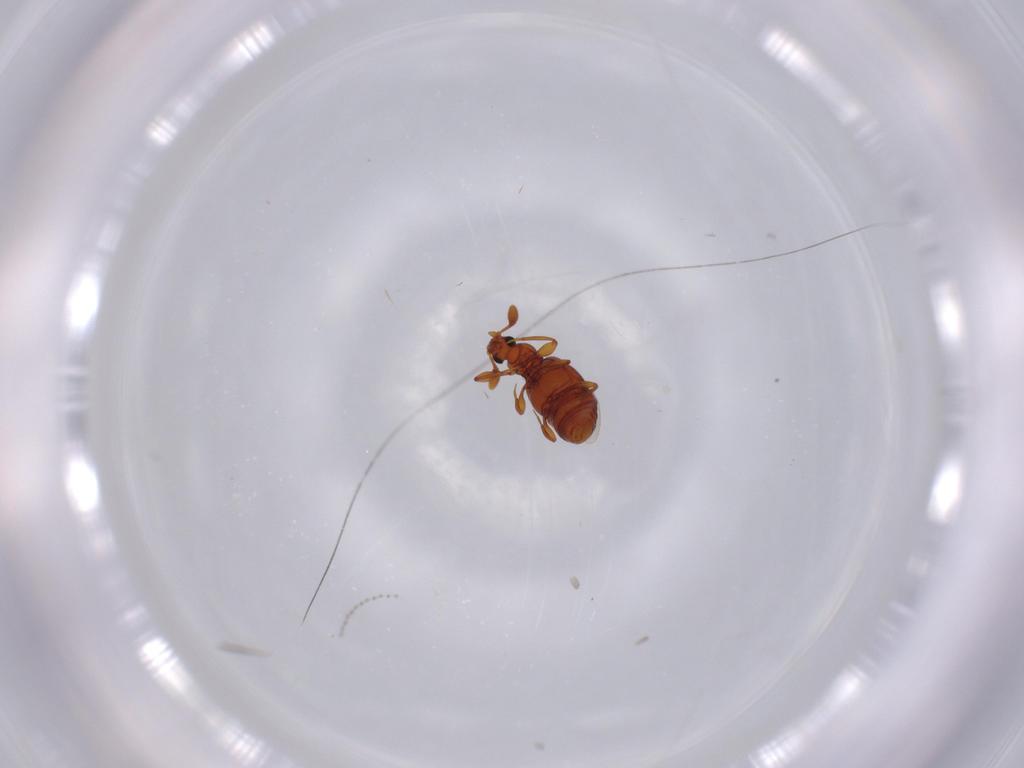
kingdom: Animalia
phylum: Arthropoda
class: Insecta
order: Coleoptera
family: Staphylinidae
